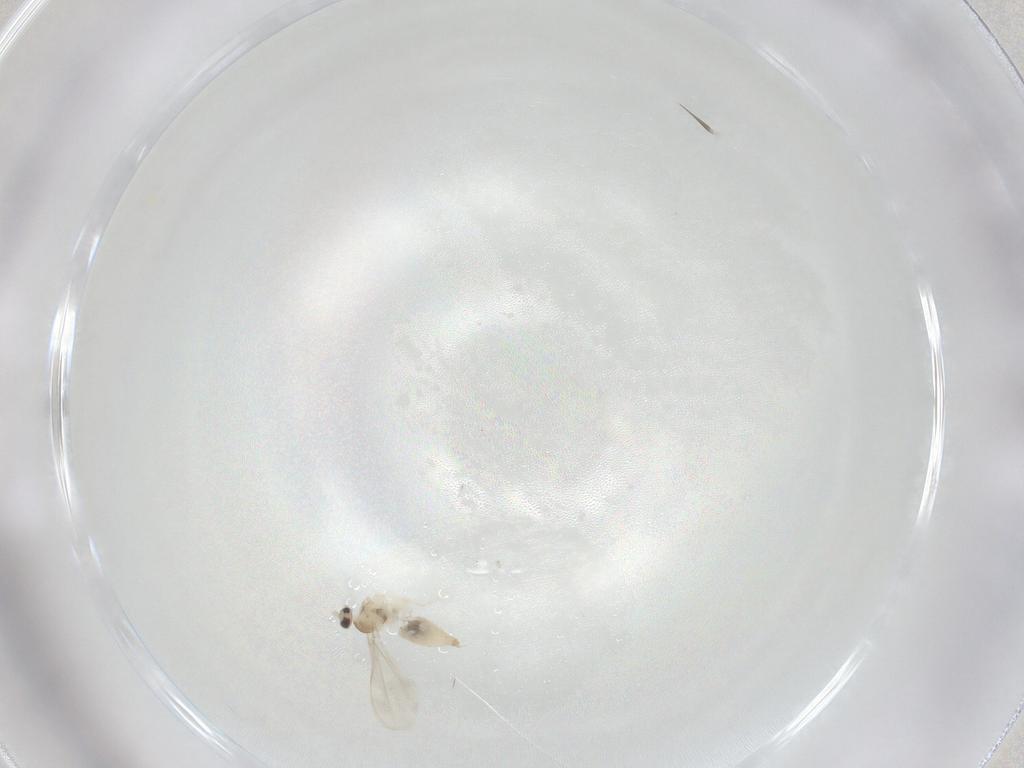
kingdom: Animalia
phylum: Arthropoda
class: Insecta
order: Diptera
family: Cecidomyiidae
